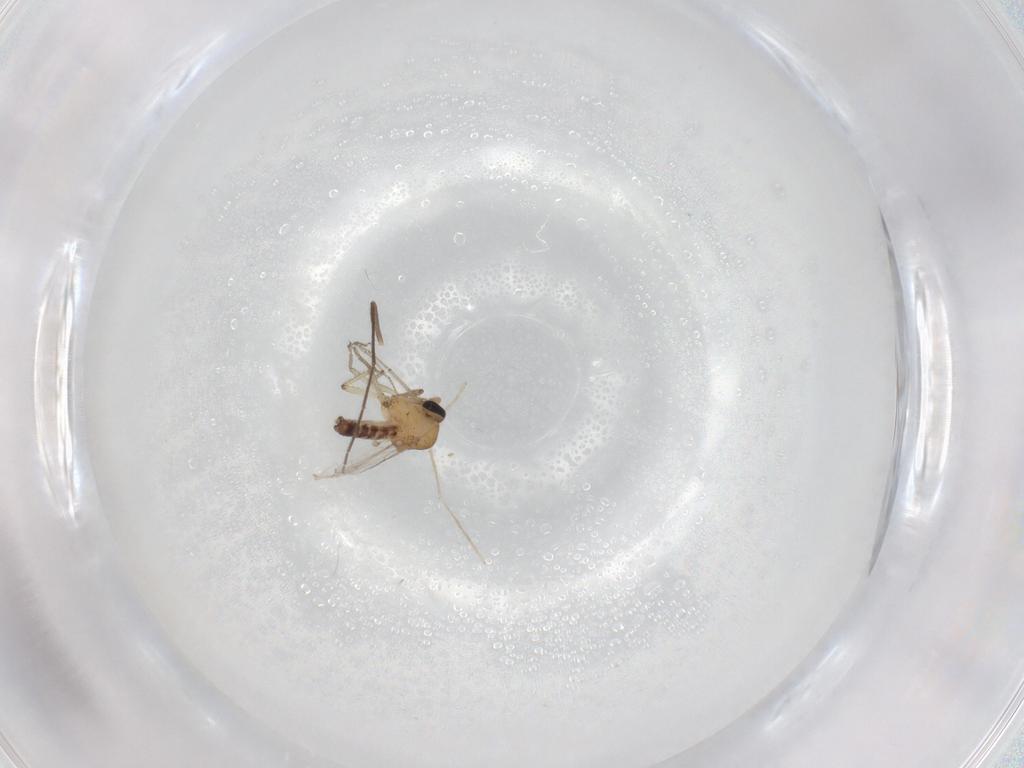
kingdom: Animalia
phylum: Arthropoda
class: Insecta
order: Diptera
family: Chironomidae
